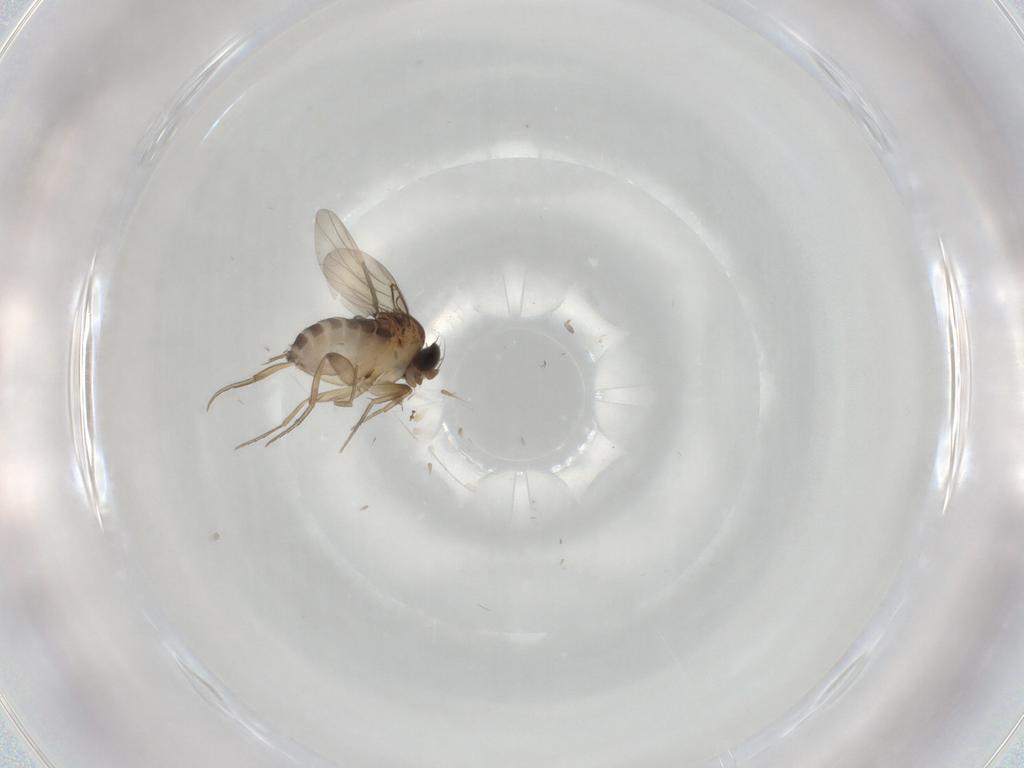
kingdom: Animalia
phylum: Arthropoda
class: Insecta
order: Diptera
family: Phoridae
